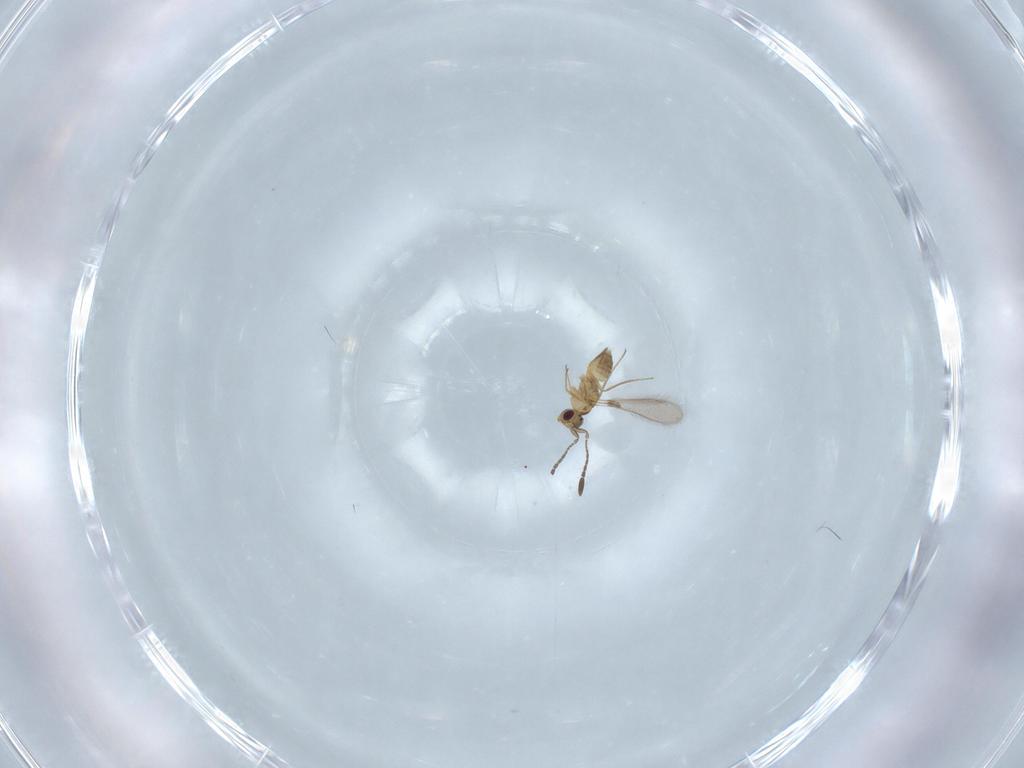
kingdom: Animalia
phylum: Arthropoda
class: Insecta
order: Hymenoptera
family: Mymaridae
